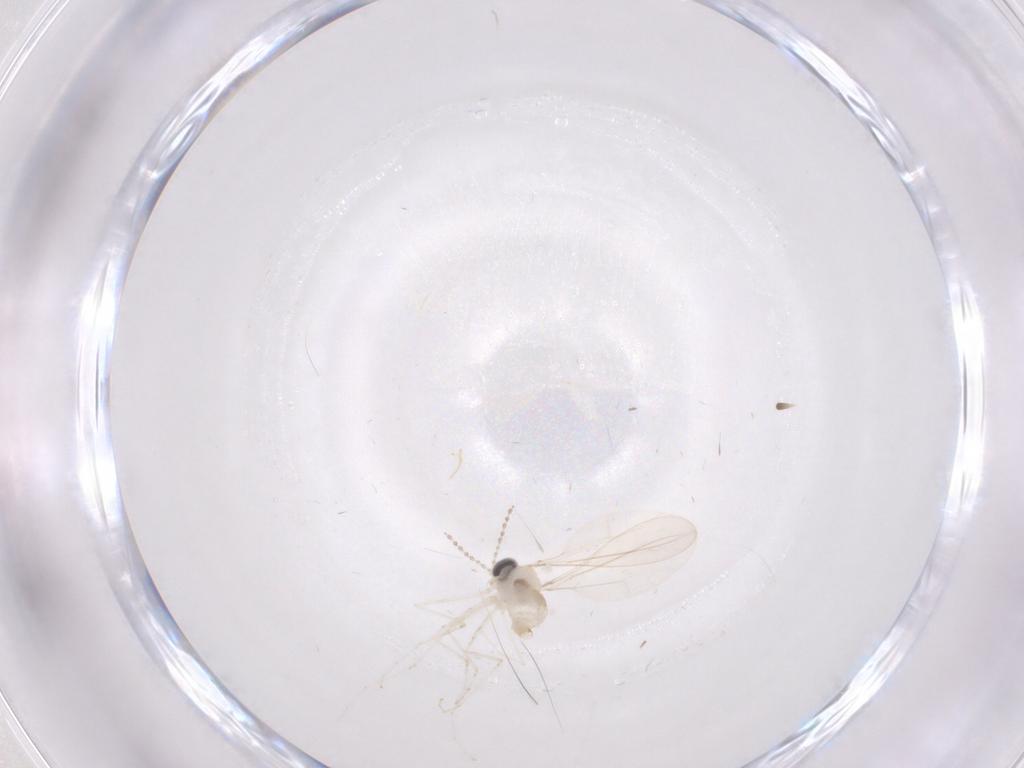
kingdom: Animalia
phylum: Arthropoda
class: Insecta
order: Diptera
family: Cecidomyiidae
